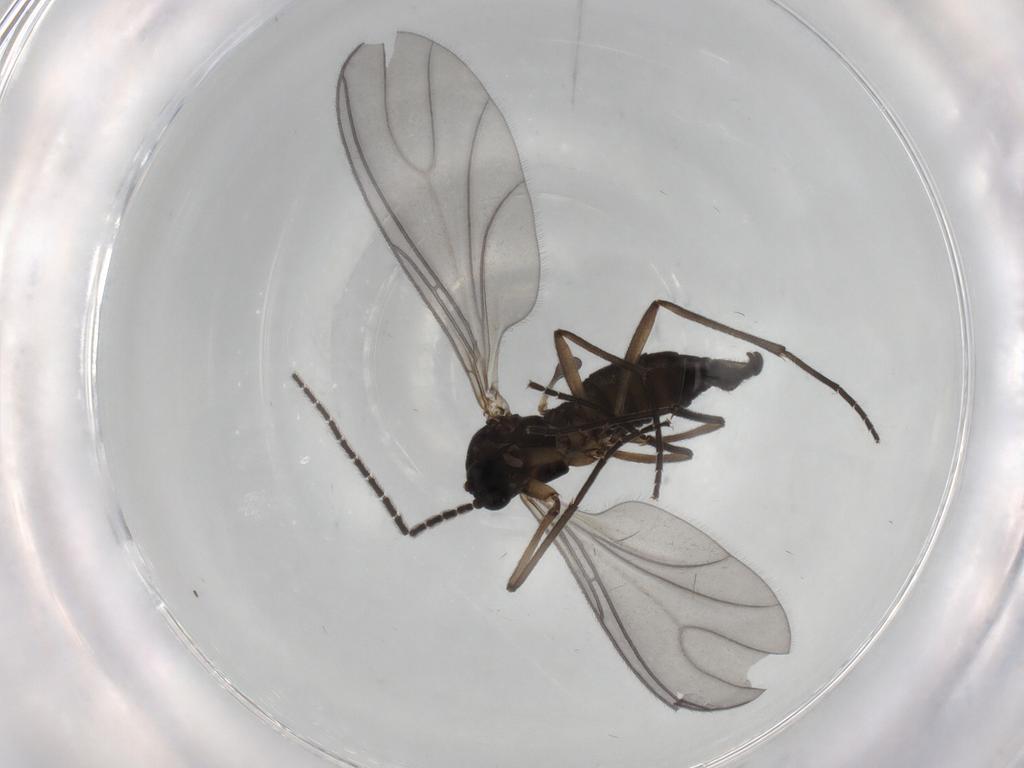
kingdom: Animalia
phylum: Arthropoda
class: Insecta
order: Diptera
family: Sciaridae
